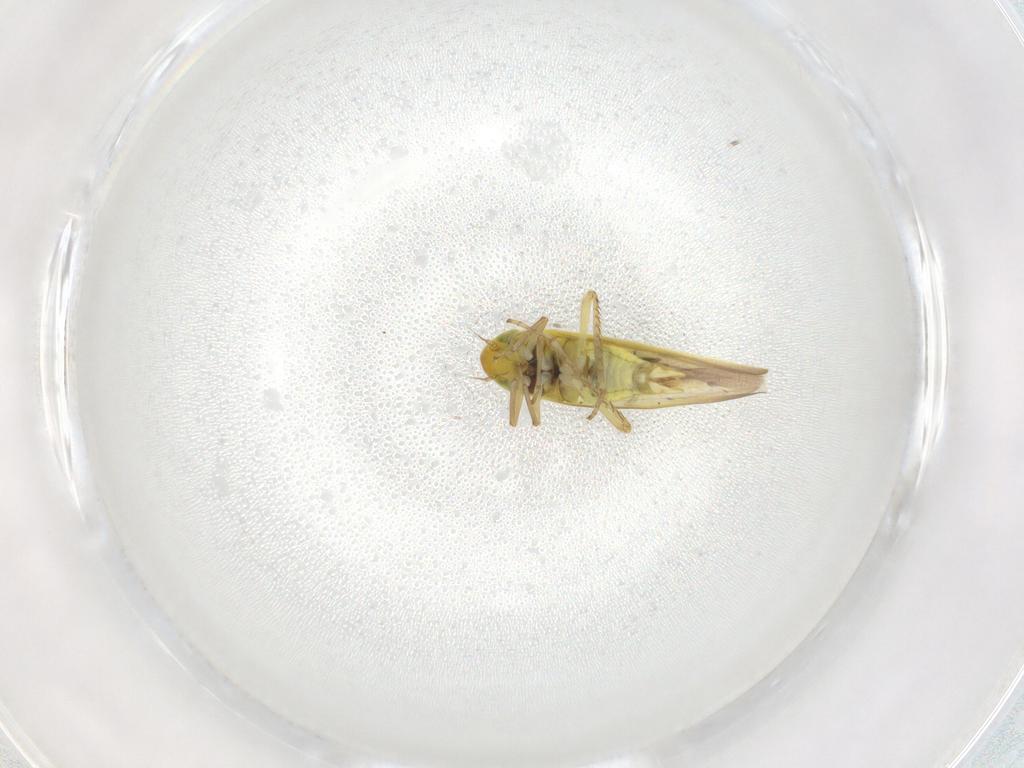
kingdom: Animalia
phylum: Arthropoda
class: Insecta
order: Hemiptera
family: Cicadellidae
